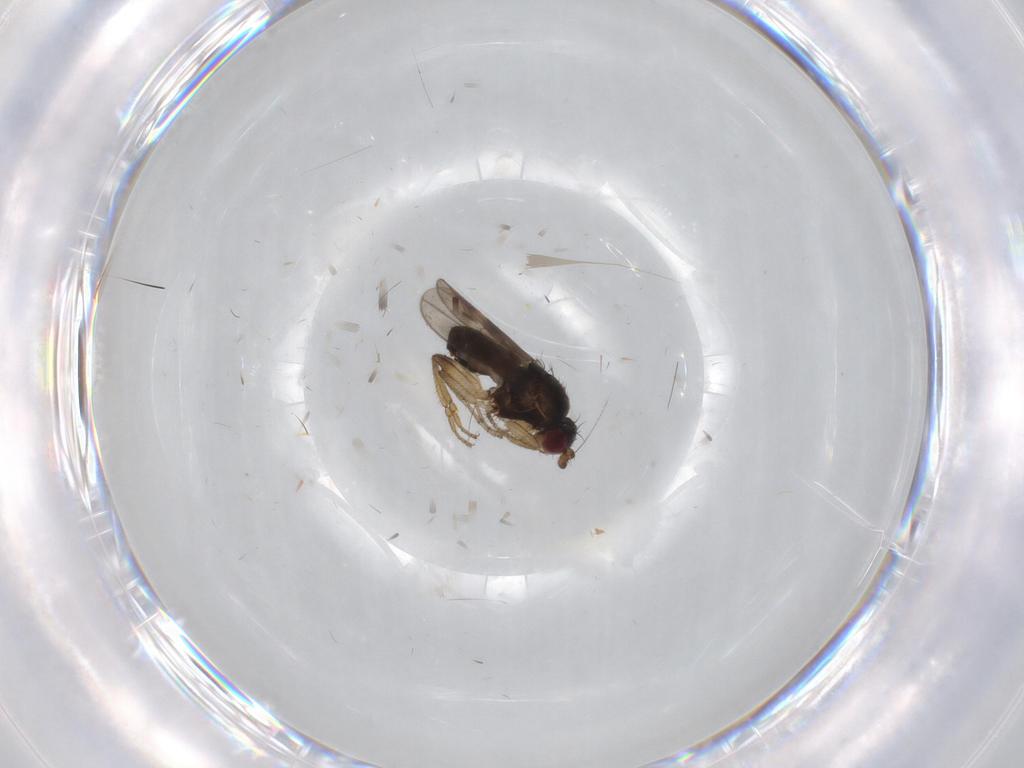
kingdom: Animalia
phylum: Arthropoda
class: Insecta
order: Diptera
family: Sphaeroceridae
